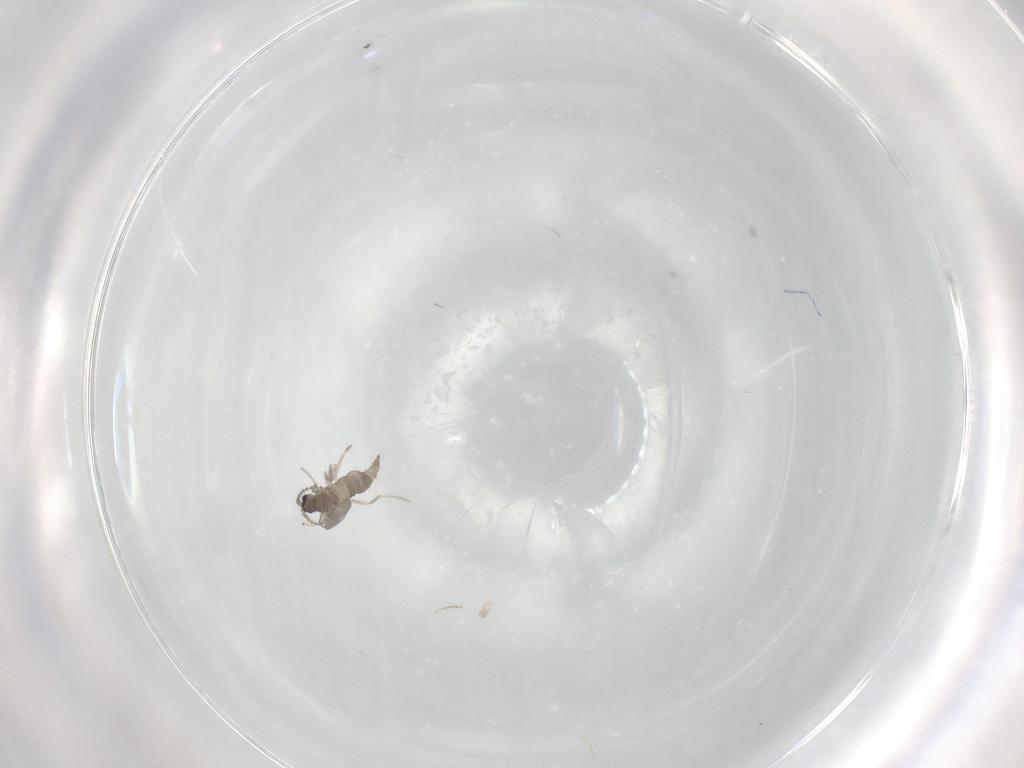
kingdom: Animalia
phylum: Arthropoda
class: Insecta
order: Diptera
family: Cecidomyiidae
